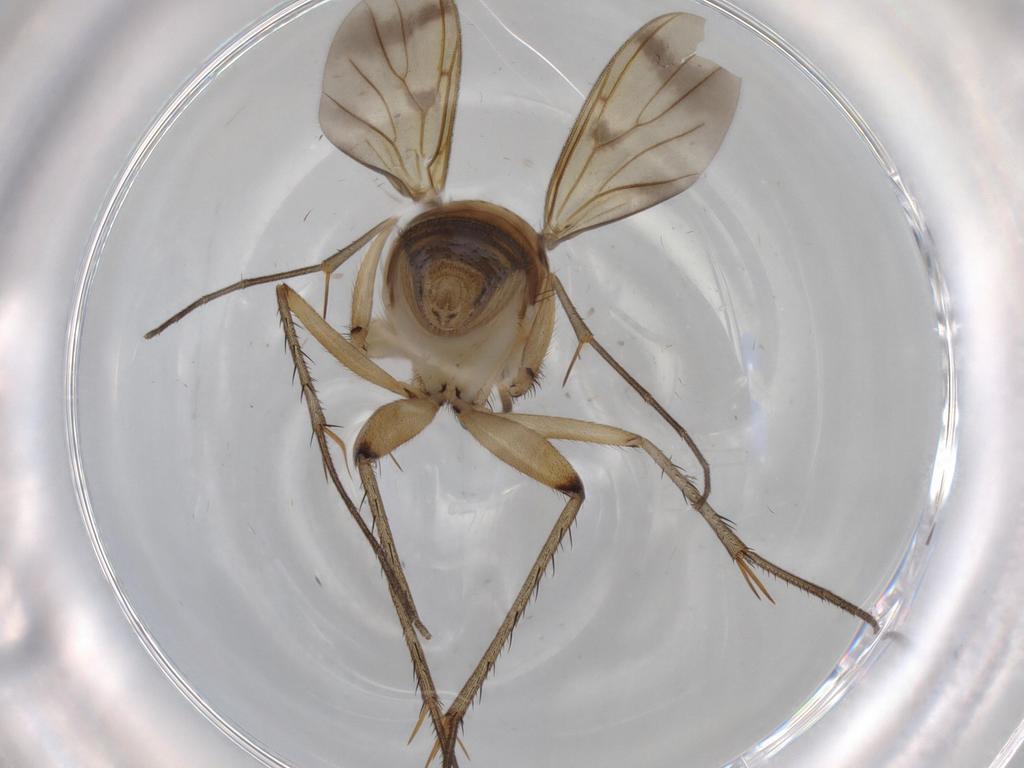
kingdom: Animalia
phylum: Arthropoda
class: Insecta
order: Diptera
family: Mycetophilidae
